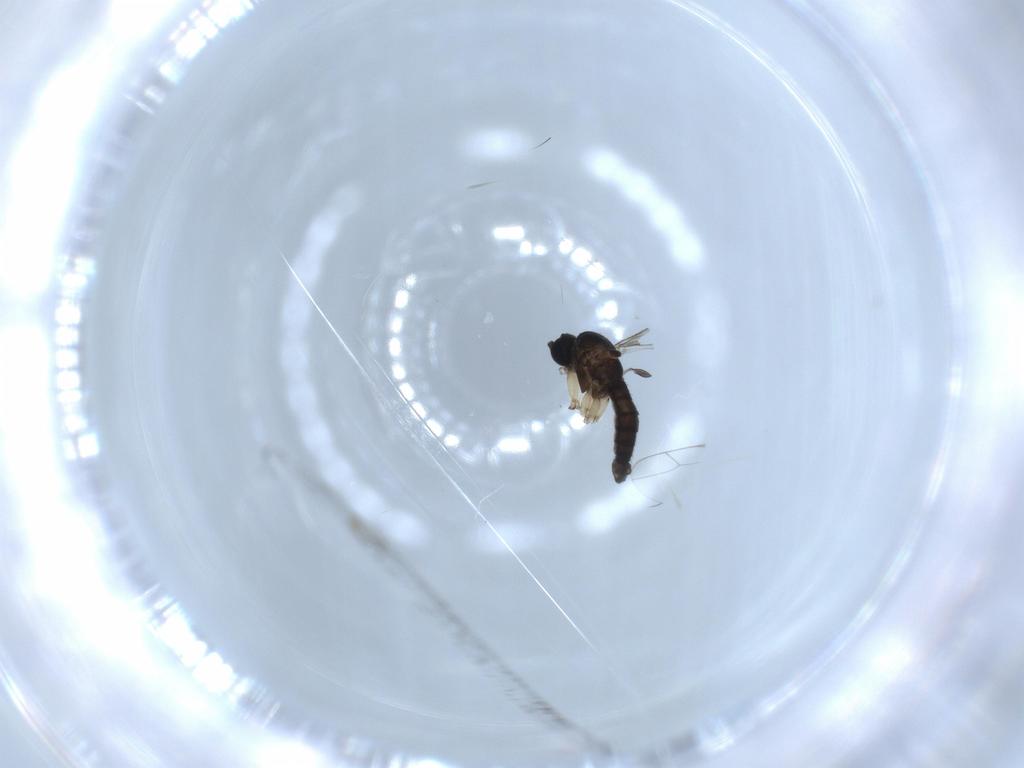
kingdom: Animalia
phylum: Arthropoda
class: Insecta
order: Diptera
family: Sciaridae
